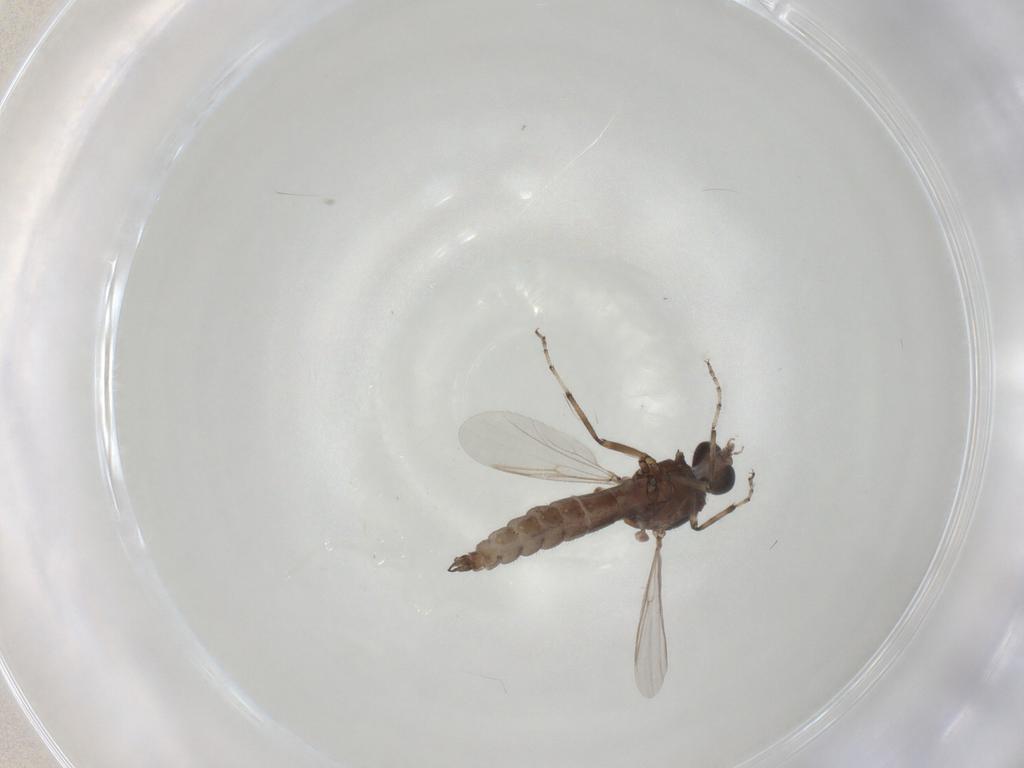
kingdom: Animalia
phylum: Arthropoda
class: Insecta
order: Diptera
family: Ceratopogonidae
